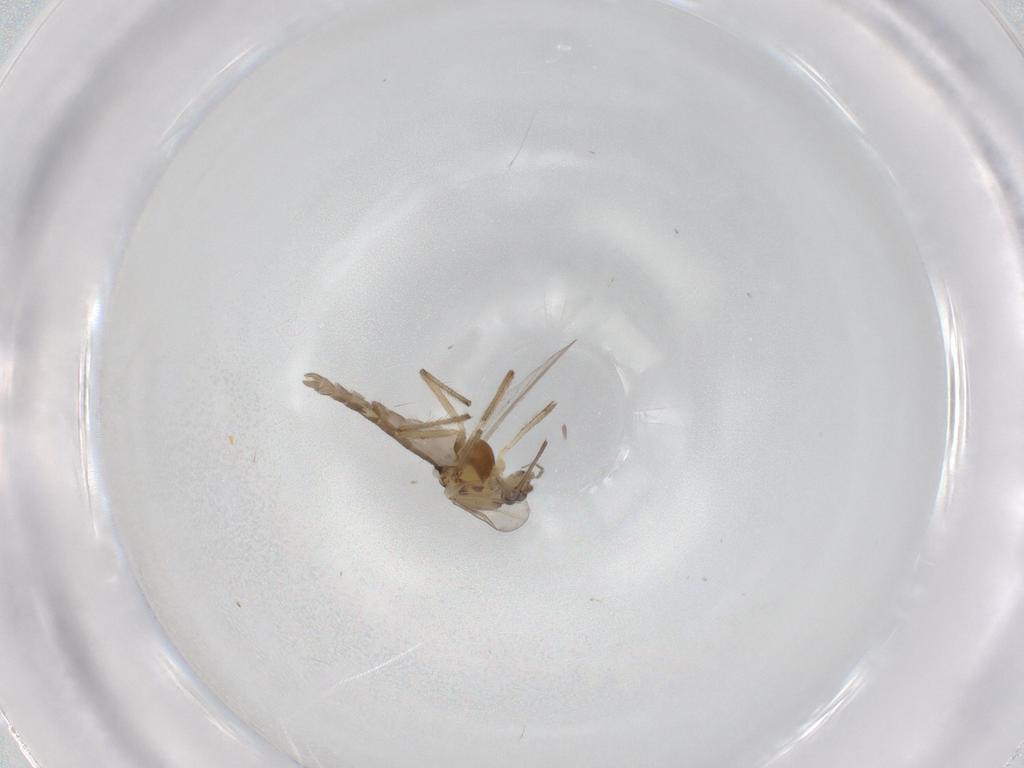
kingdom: Animalia
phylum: Arthropoda
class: Insecta
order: Diptera
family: Chironomidae
